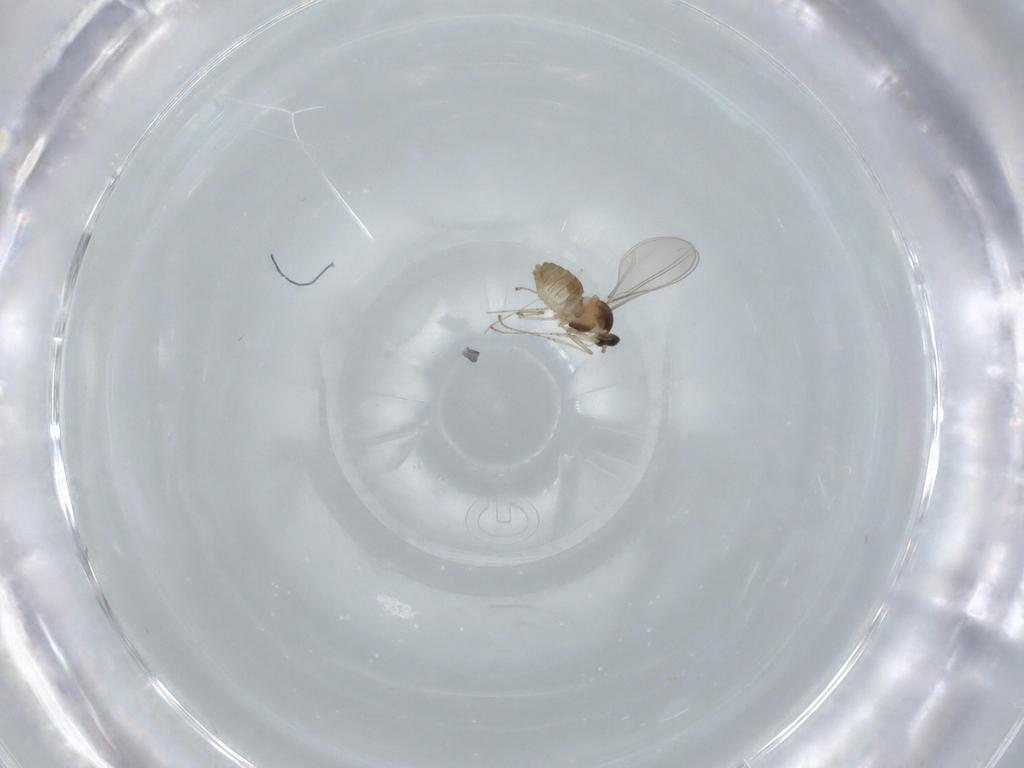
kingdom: Animalia
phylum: Arthropoda
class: Insecta
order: Diptera
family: Cecidomyiidae
